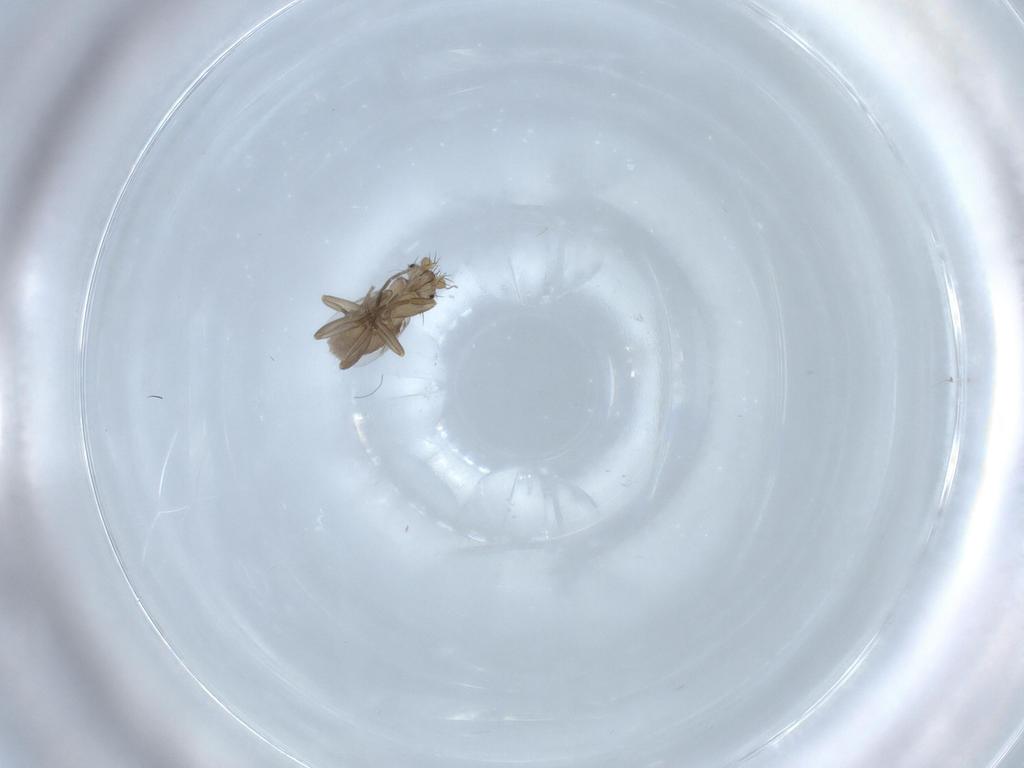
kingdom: Animalia
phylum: Arthropoda
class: Insecta
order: Diptera
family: Phoridae
